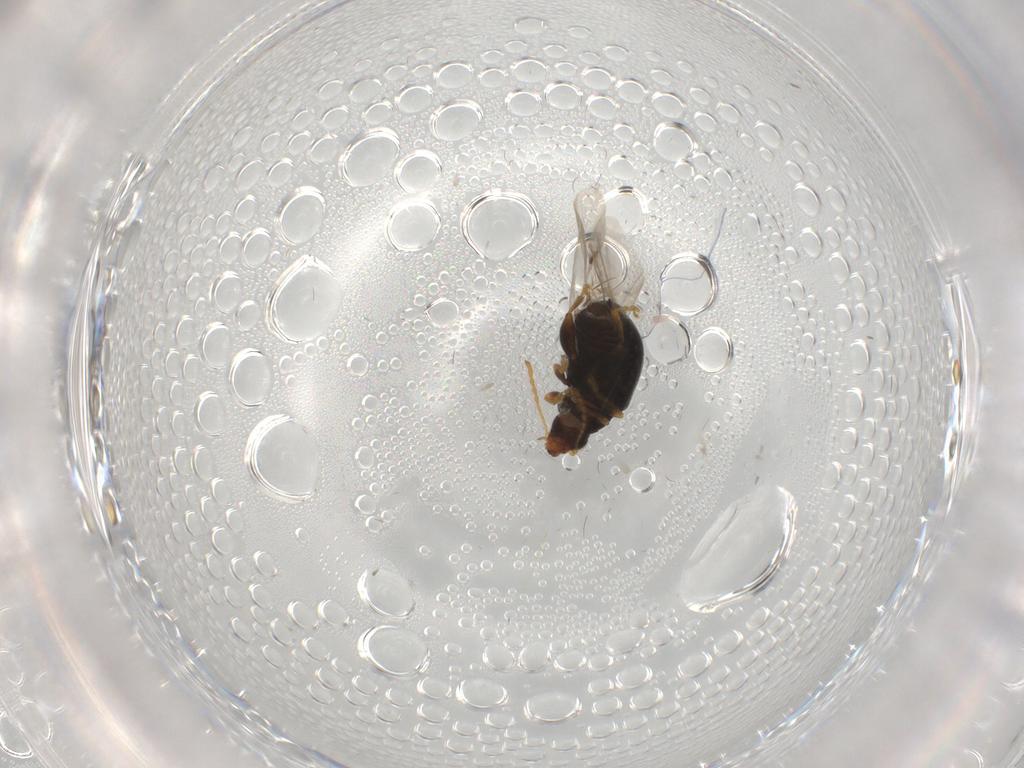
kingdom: Animalia
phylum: Arthropoda
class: Insecta
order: Coleoptera
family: Chrysomelidae
